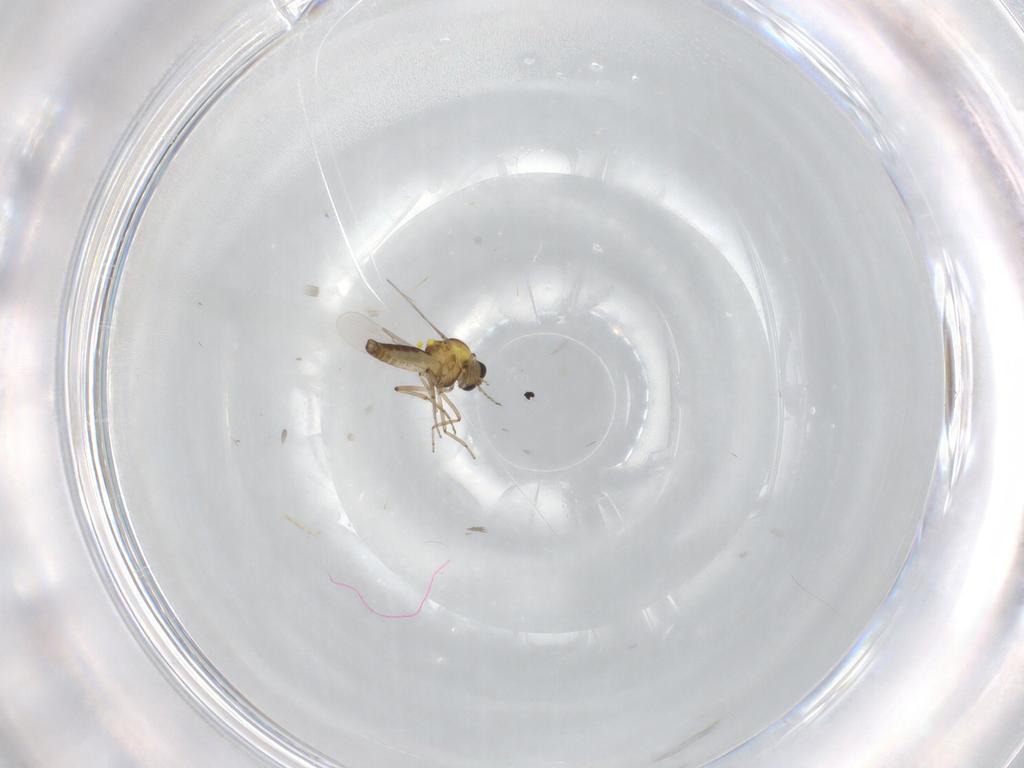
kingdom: Animalia
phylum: Arthropoda
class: Insecta
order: Diptera
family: Ceratopogonidae
